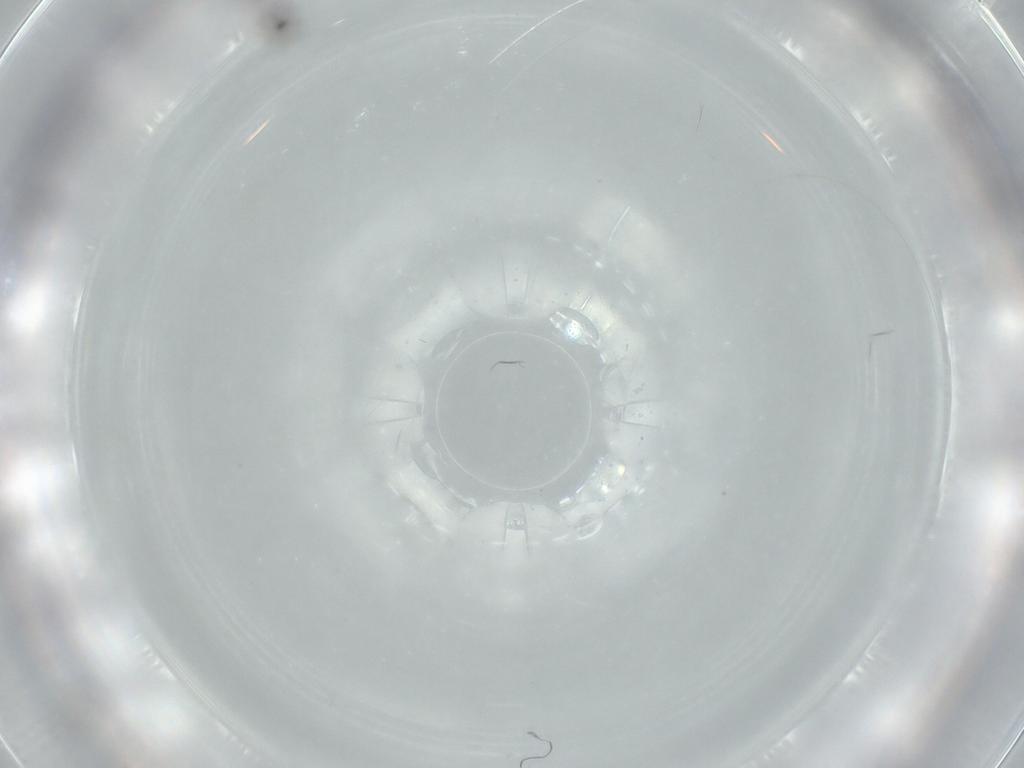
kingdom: Animalia
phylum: Arthropoda
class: Insecta
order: Hemiptera
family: Acanaloniidae
